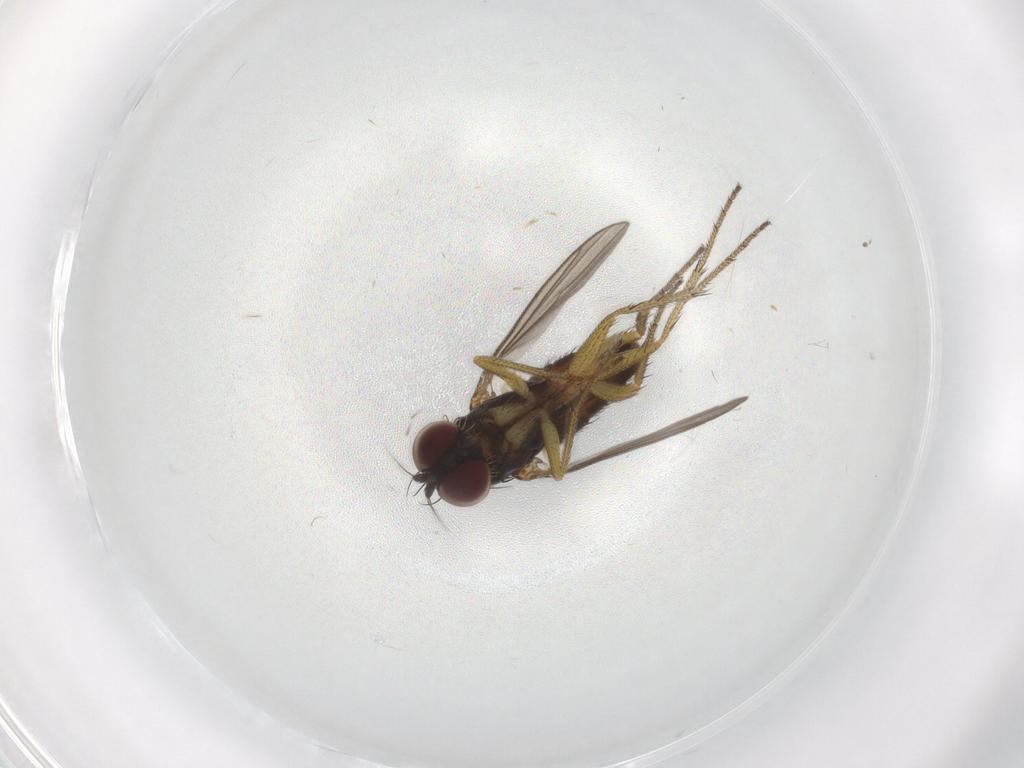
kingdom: Animalia
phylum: Arthropoda
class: Insecta
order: Diptera
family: Dolichopodidae
